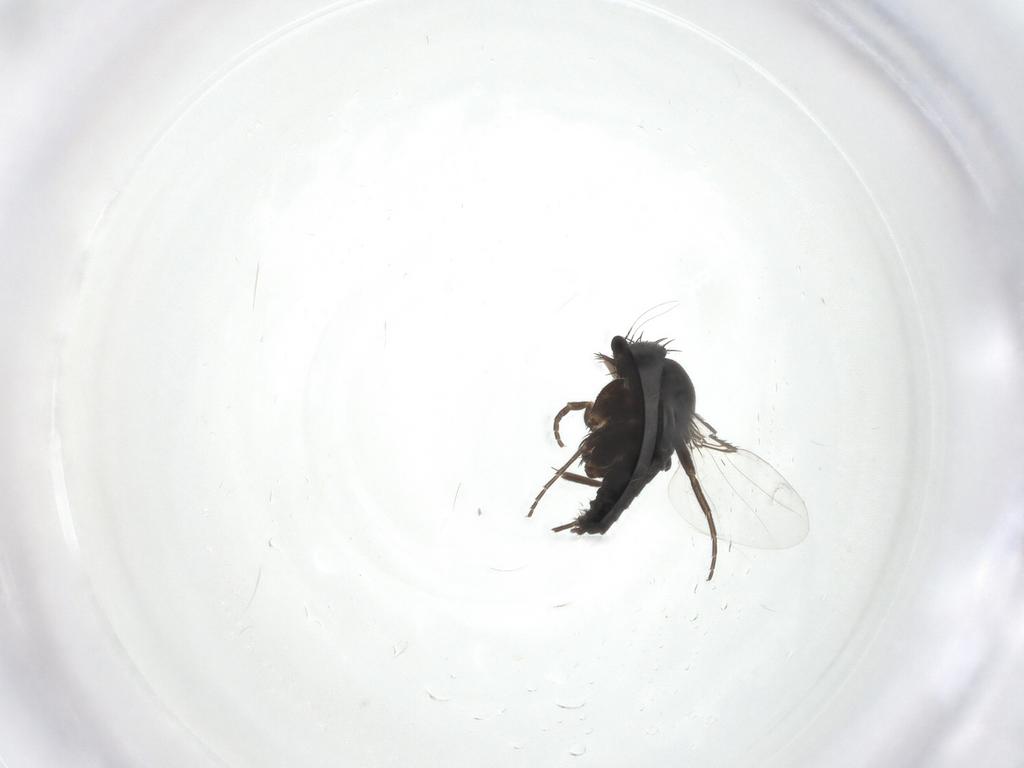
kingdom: Animalia
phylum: Arthropoda
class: Insecta
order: Diptera
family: Phoridae
